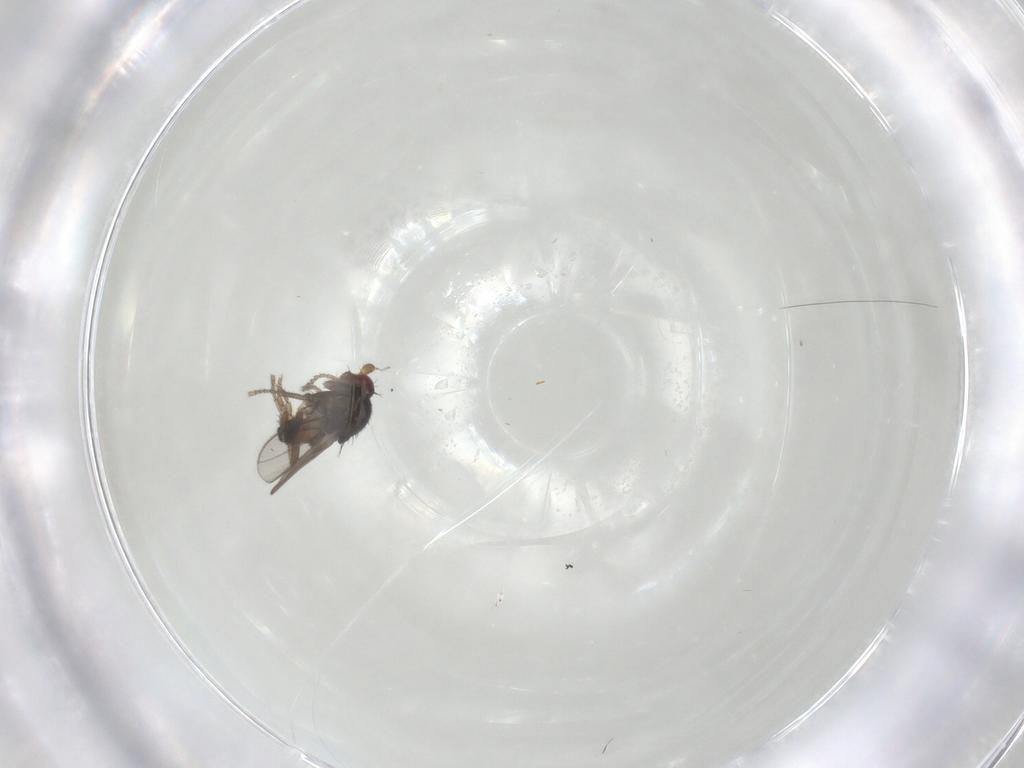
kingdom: Animalia
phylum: Arthropoda
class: Insecta
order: Diptera
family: Sphaeroceridae
